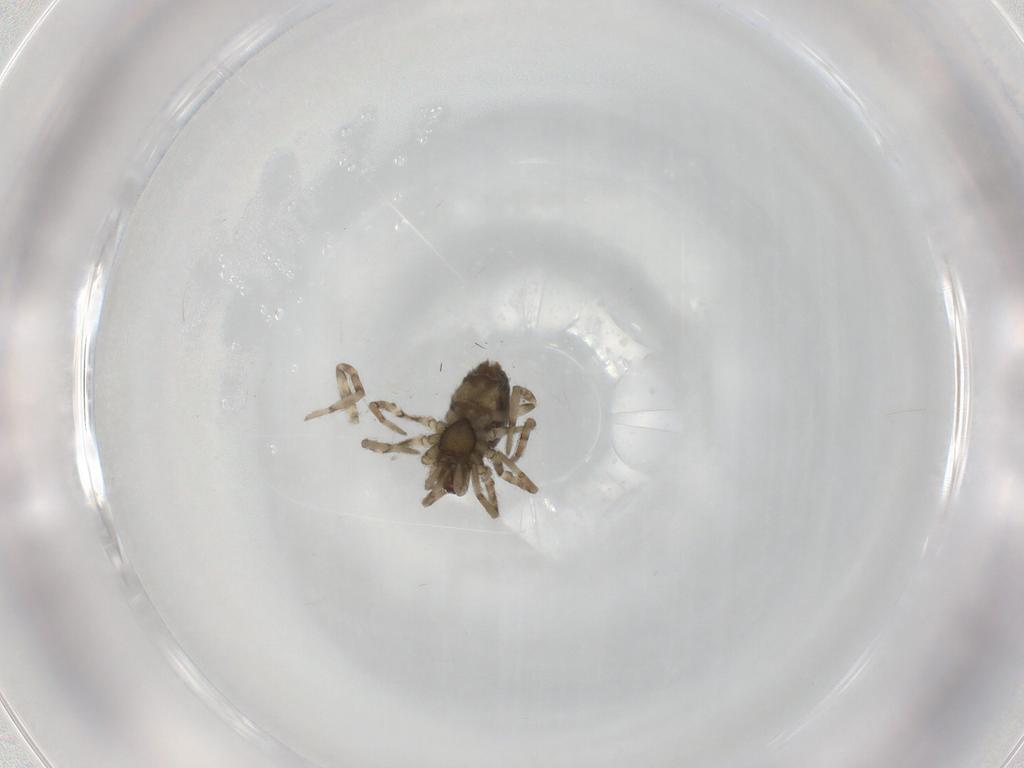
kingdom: Animalia
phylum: Arthropoda
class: Arachnida
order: Araneae
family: Dictynidae
